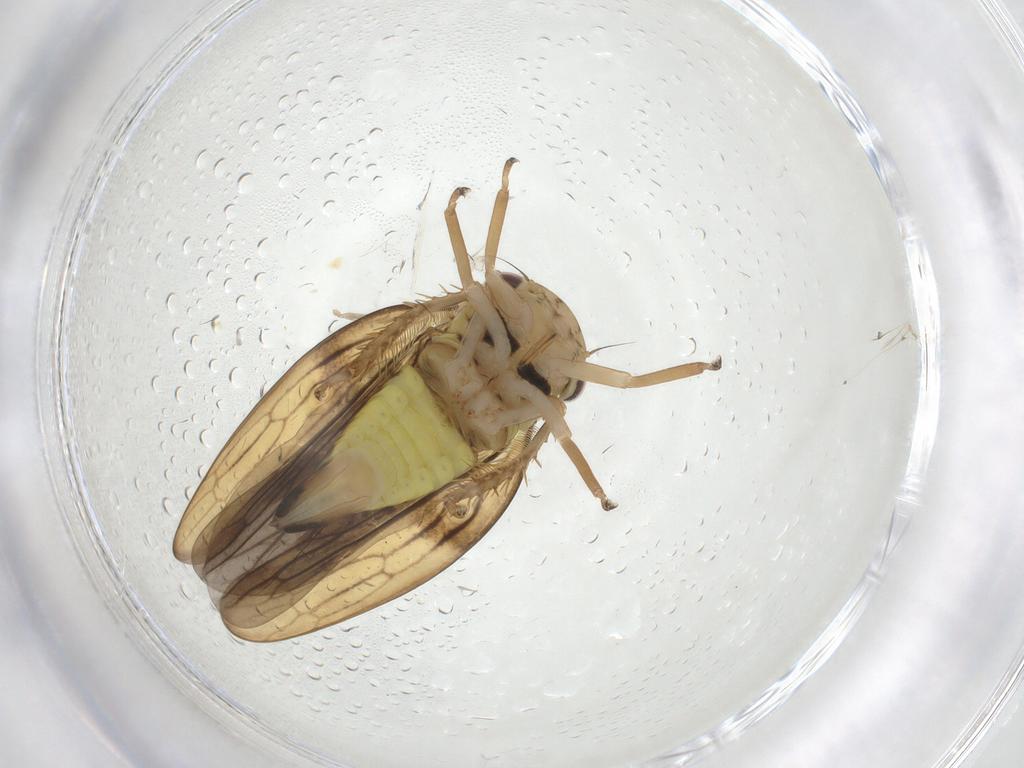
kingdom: Animalia
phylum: Arthropoda
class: Insecta
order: Hemiptera
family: Cicadellidae
